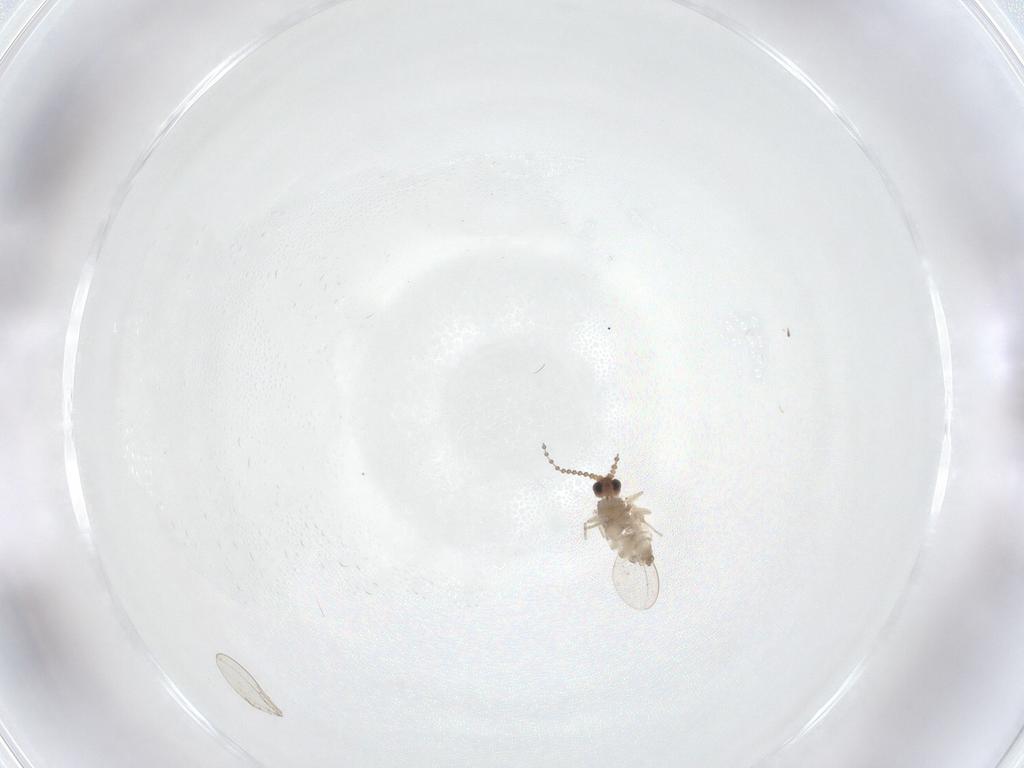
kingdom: Animalia
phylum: Arthropoda
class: Insecta
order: Diptera
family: Cecidomyiidae
